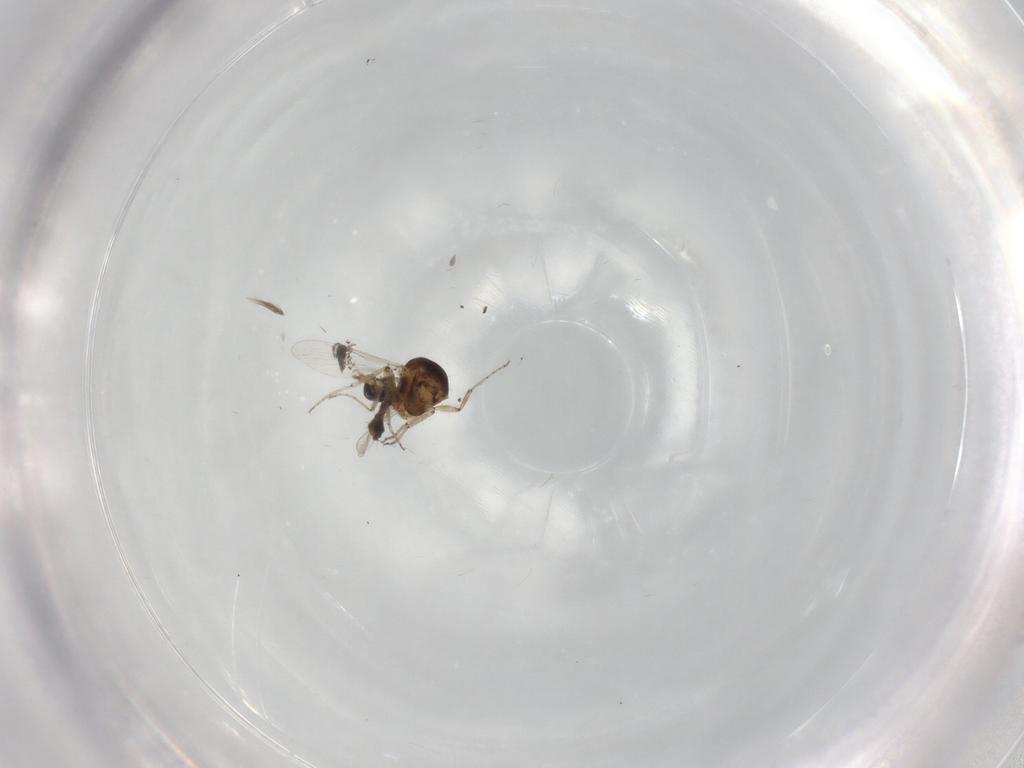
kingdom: Animalia
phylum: Arthropoda
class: Insecta
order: Diptera
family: Ceratopogonidae
